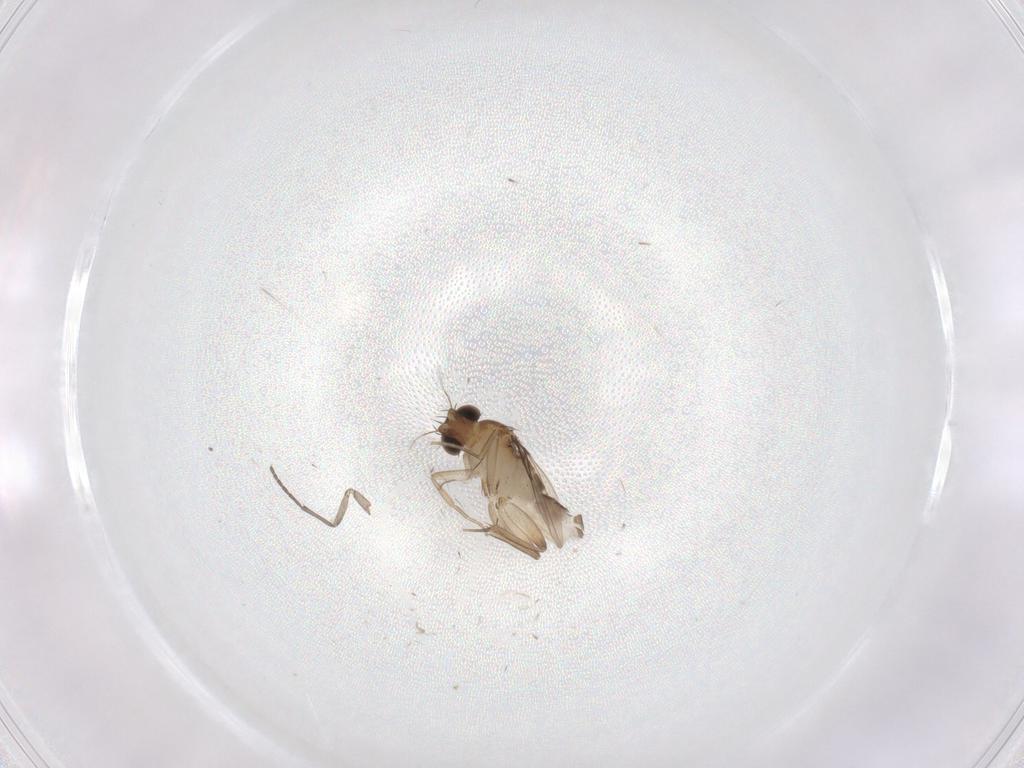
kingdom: Animalia
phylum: Arthropoda
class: Insecta
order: Diptera
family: Phoridae
